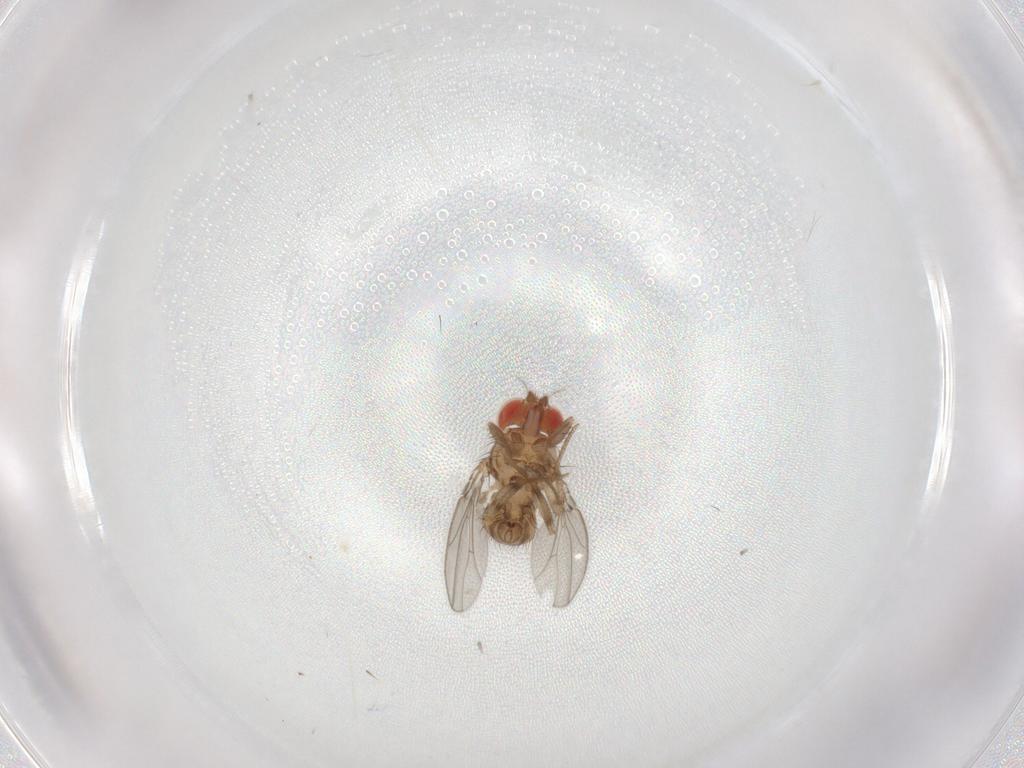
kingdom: Animalia
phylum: Arthropoda
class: Insecta
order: Diptera
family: Drosophilidae
